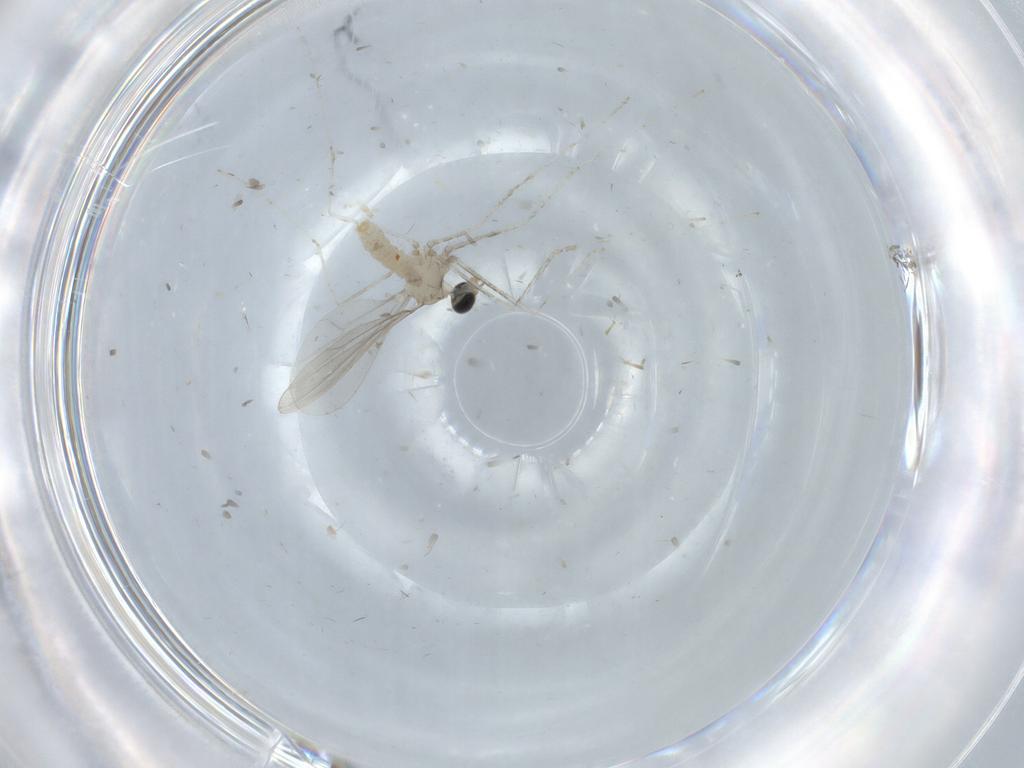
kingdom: Animalia
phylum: Arthropoda
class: Insecta
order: Diptera
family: Cecidomyiidae
